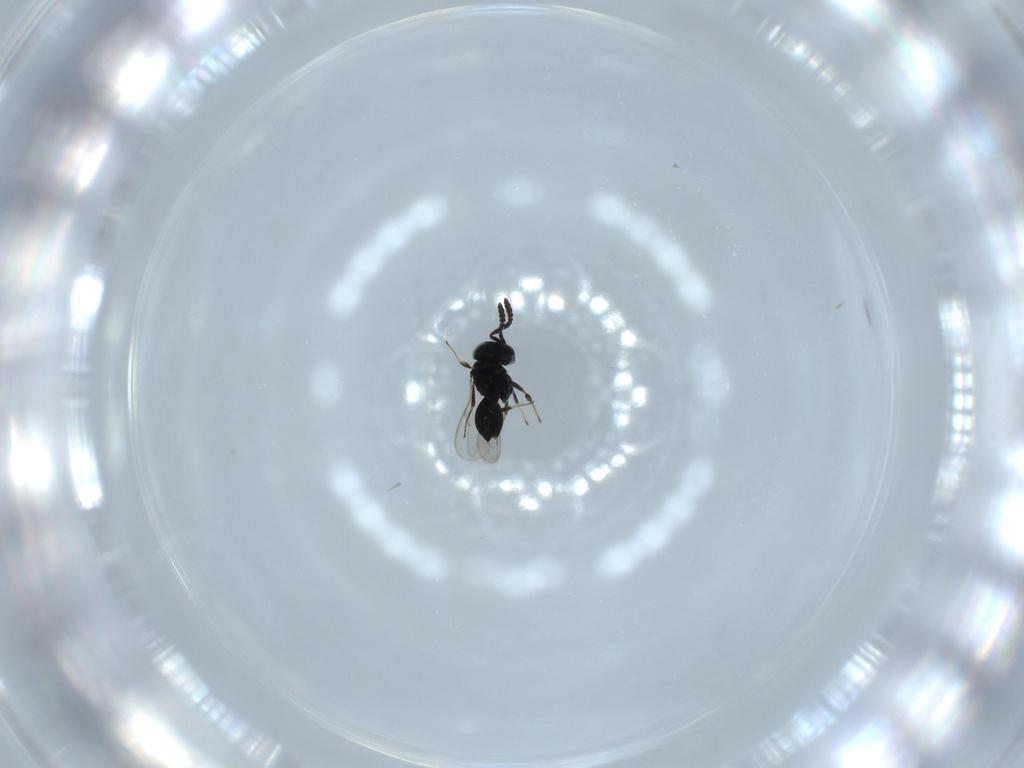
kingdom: Animalia
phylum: Arthropoda
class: Insecta
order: Hymenoptera
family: Scelionidae
